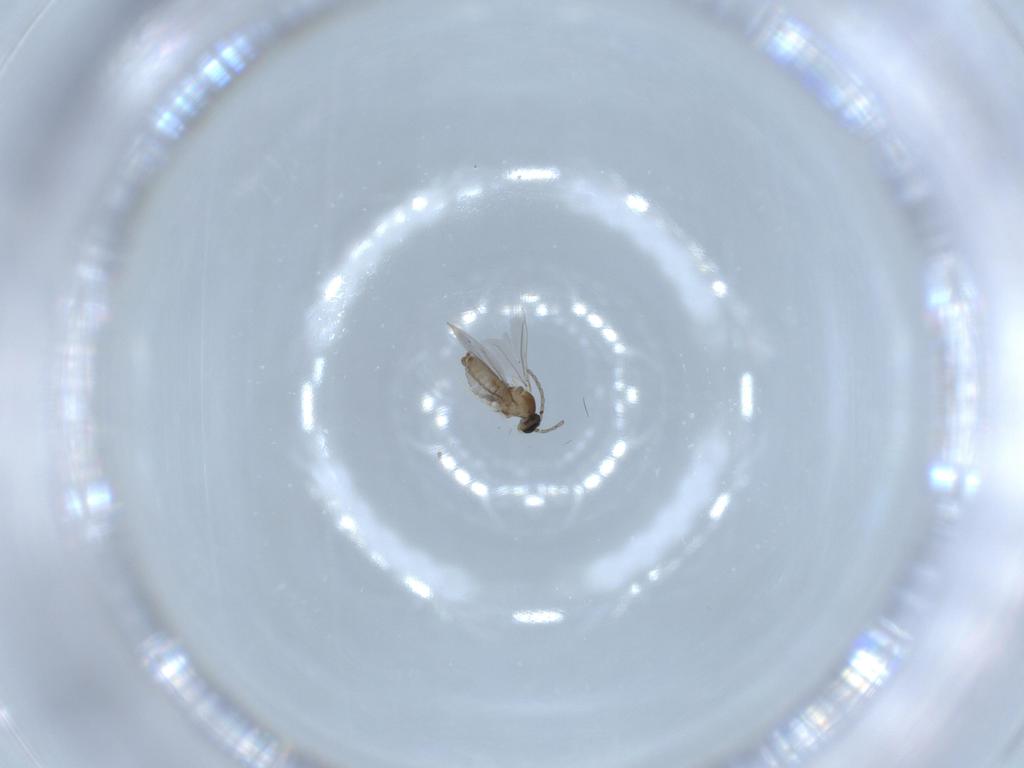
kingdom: Animalia
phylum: Arthropoda
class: Insecta
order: Diptera
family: Cecidomyiidae
